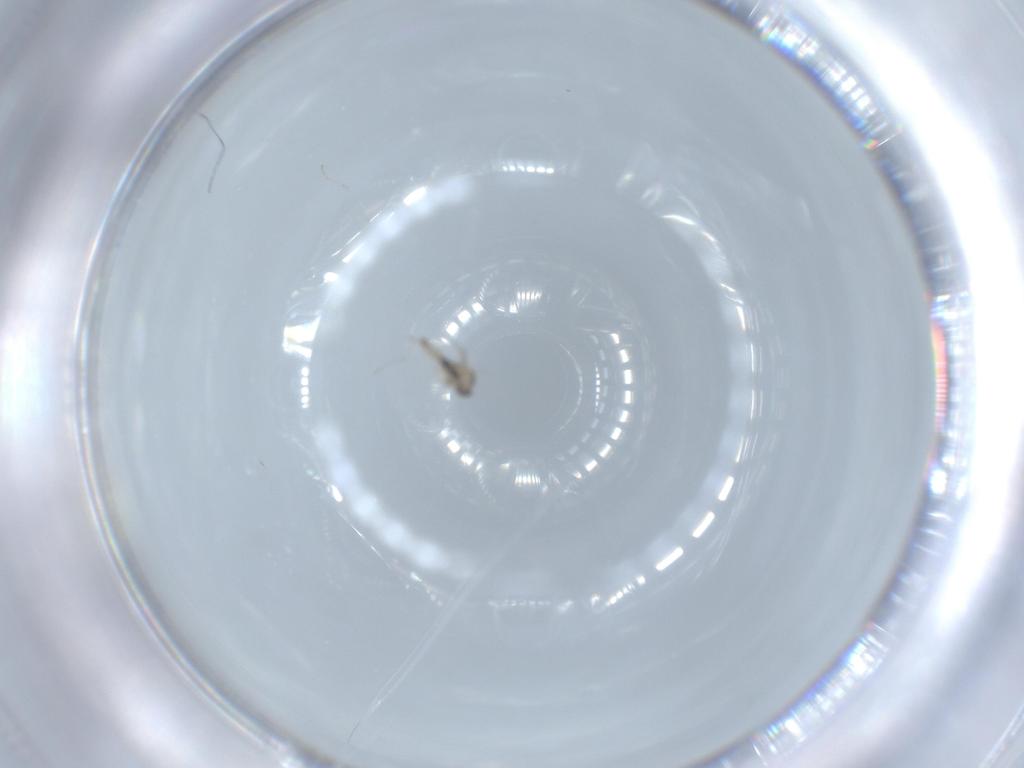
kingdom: Animalia
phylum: Arthropoda
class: Insecta
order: Diptera
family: Cecidomyiidae
